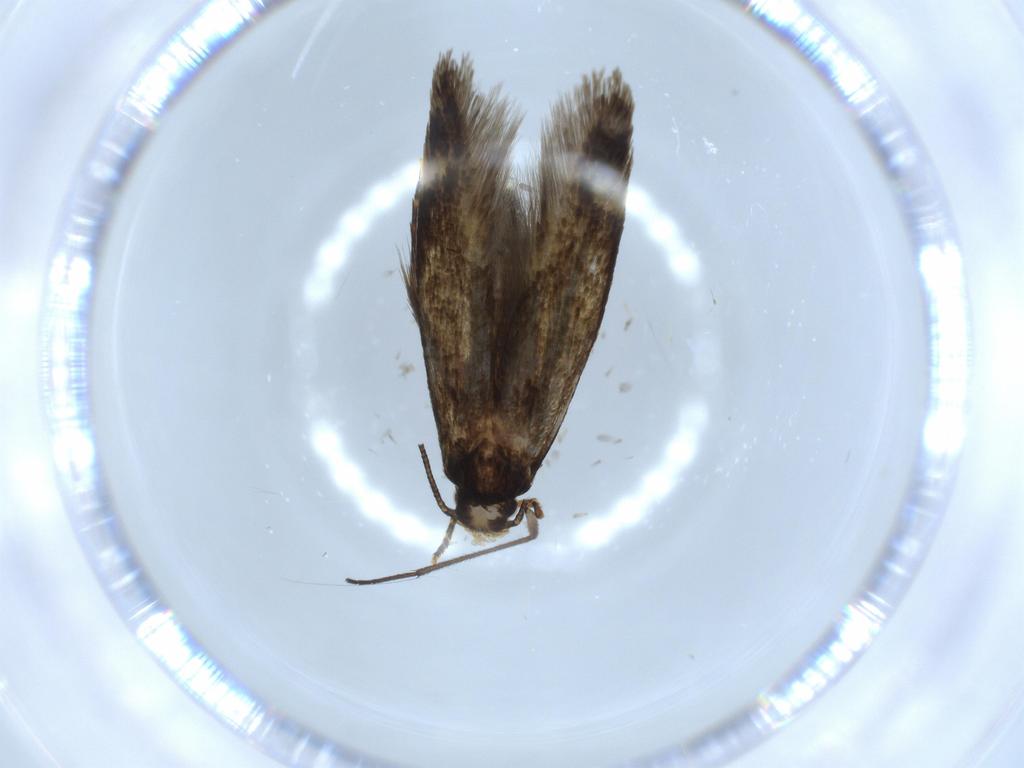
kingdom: Animalia
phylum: Arthropoda
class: Insecta
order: Lepidoptera
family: Tineidae
